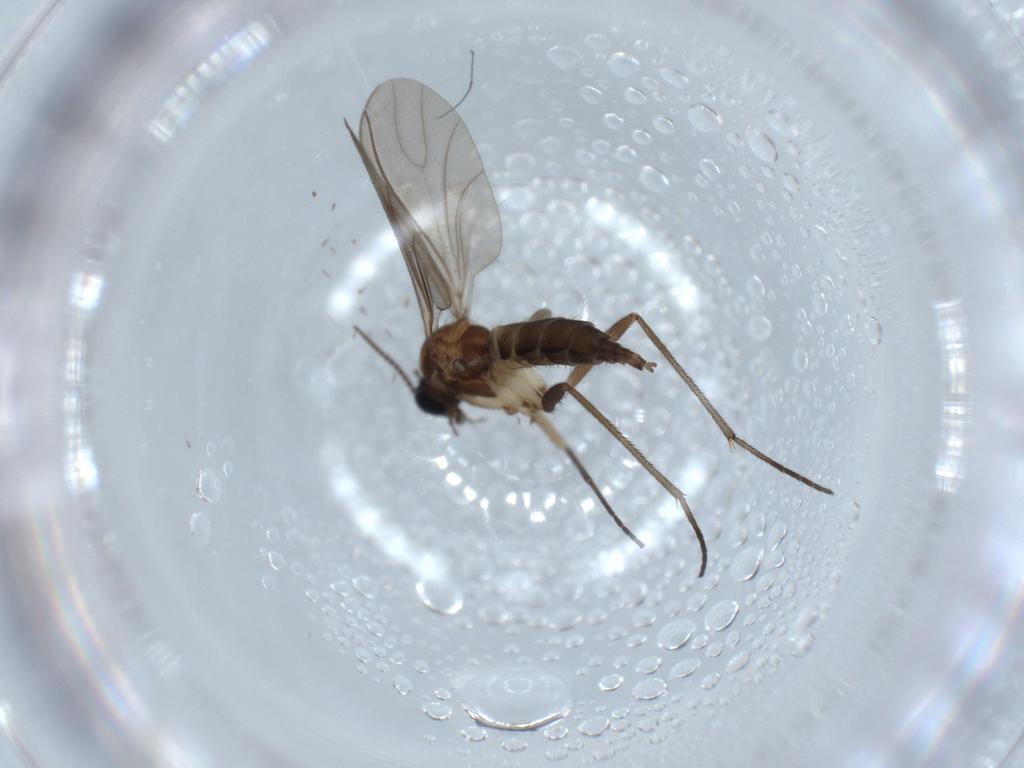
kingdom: Animalia
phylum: Arthropoda
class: Insecta
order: Diptera
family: Sciaridae
